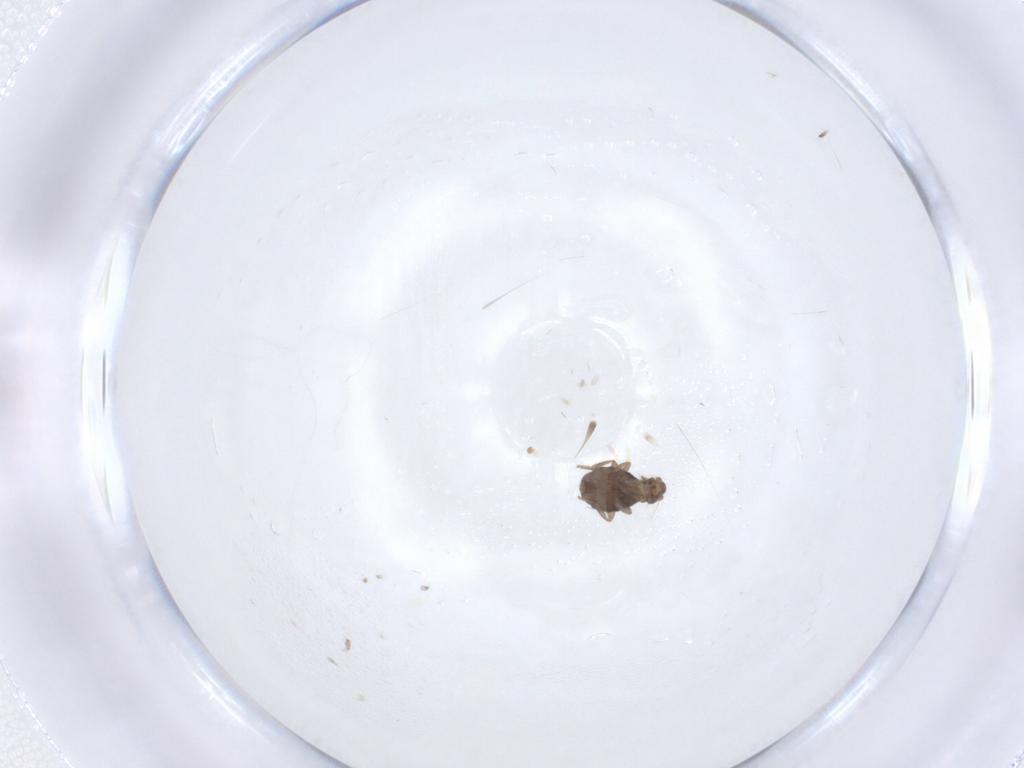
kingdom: Animalia
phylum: Arthropoda
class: Insecta
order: Diptera
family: Phoridae
